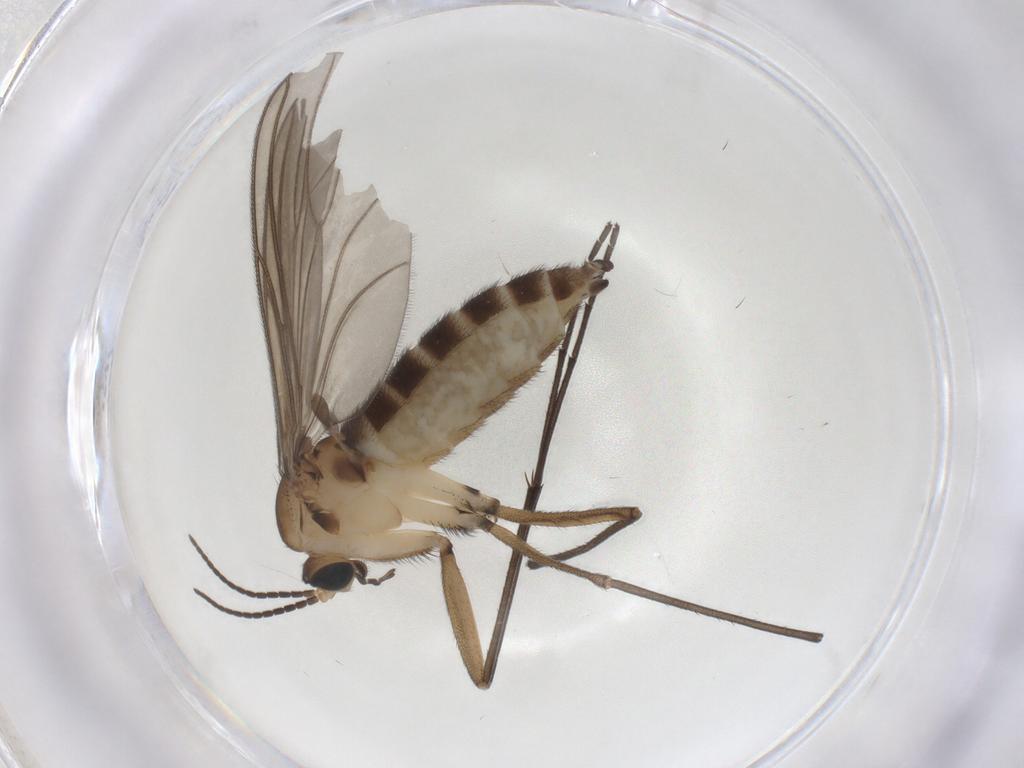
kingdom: Animalia
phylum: Arthropoda
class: Insecta
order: Diptera
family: Sciaridae
